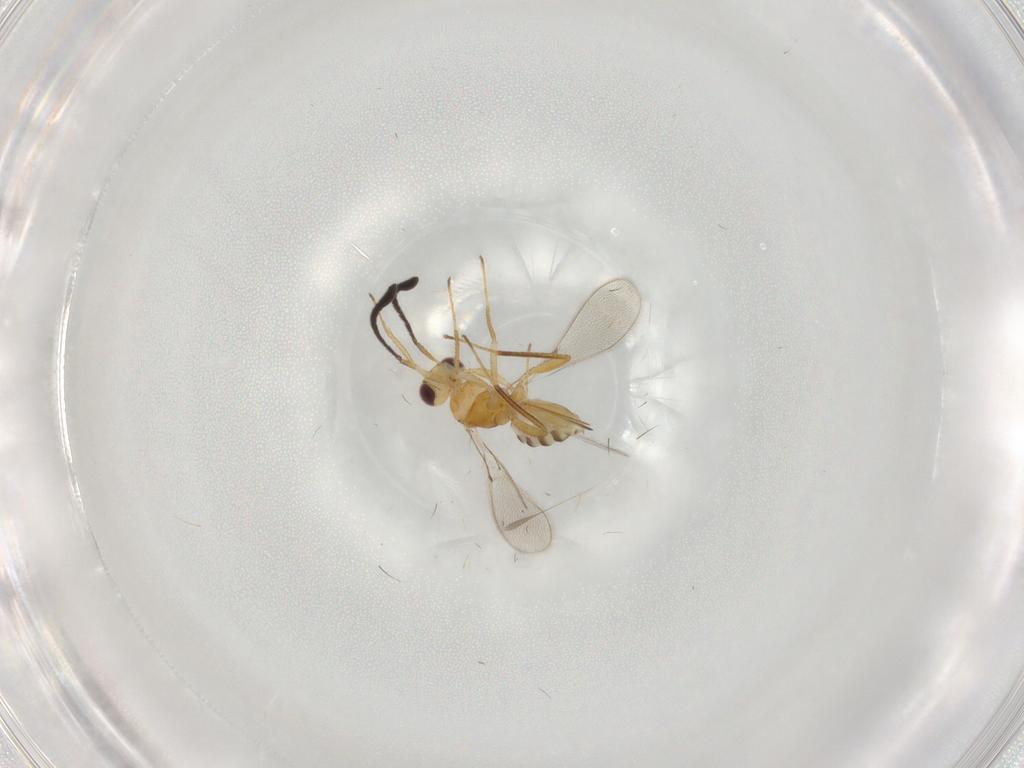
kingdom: Animalia
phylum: Arthropoda
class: Insecta
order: Hymenoptera
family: Mymaridae
